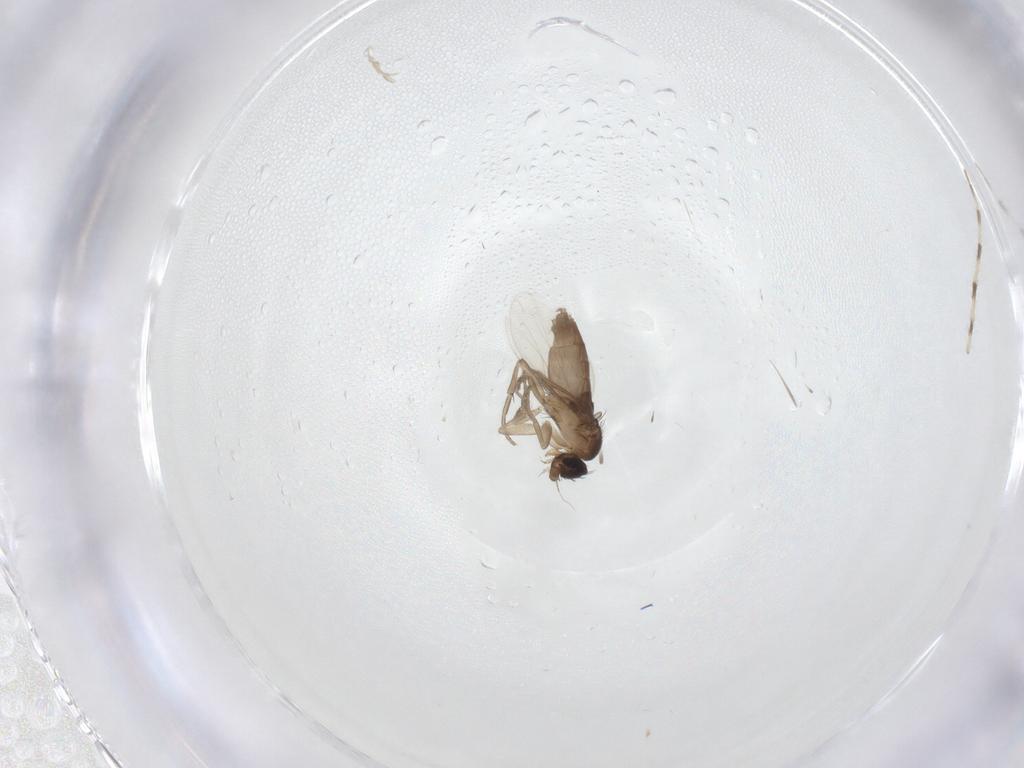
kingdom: Animalia
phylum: Arthropoda
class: Insecta
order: Diptera
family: Phoridae
